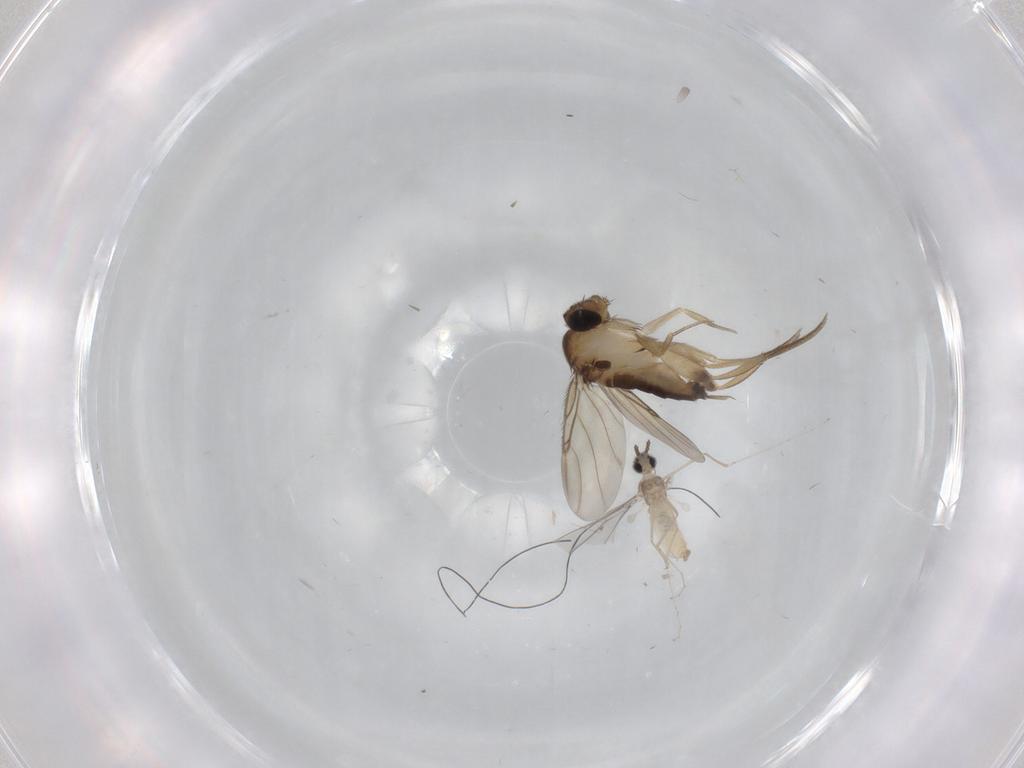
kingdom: Animalia
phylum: Arthropoda
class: Insecta
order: Diptera
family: Phoridae
